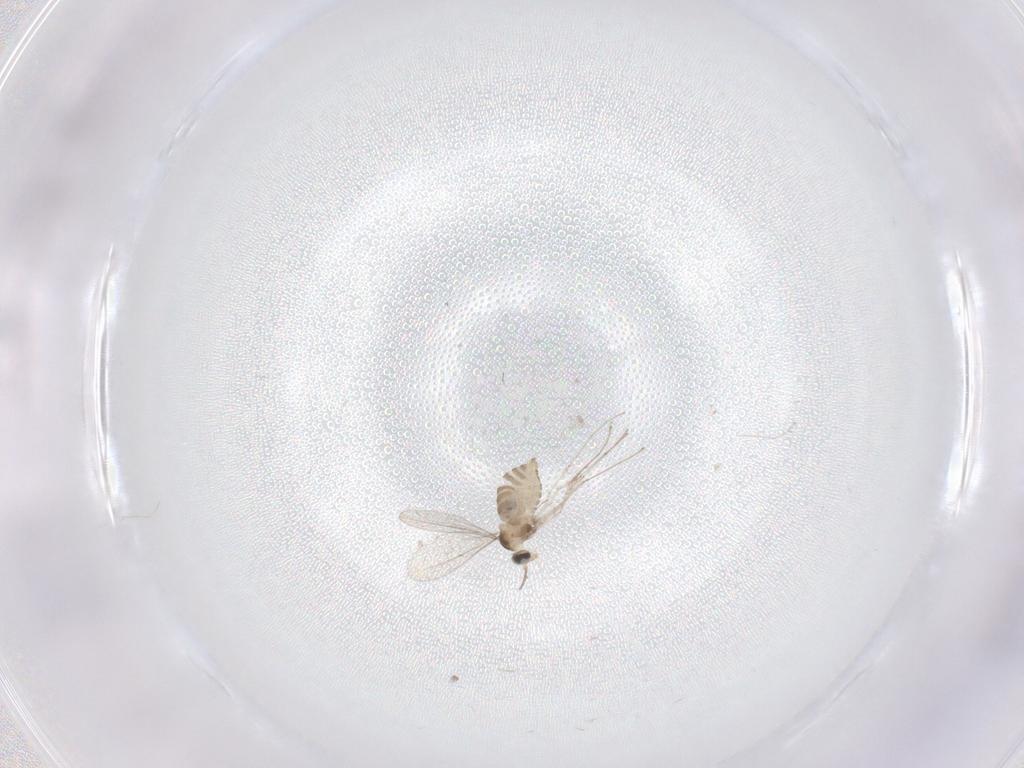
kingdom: Animalia
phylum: Arthropoda
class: Insecta
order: Diptera
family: Cecidomyiidae
